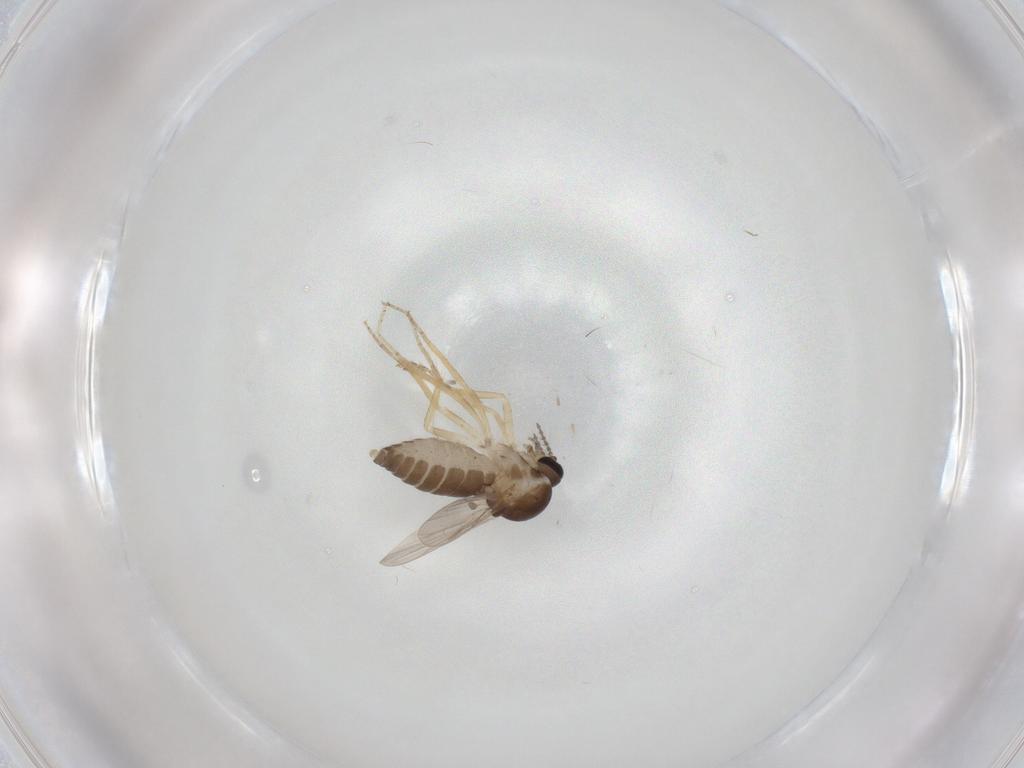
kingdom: Animalia
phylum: Arthropoda
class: Insecta
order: Diptera
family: Ceratopogonidae
